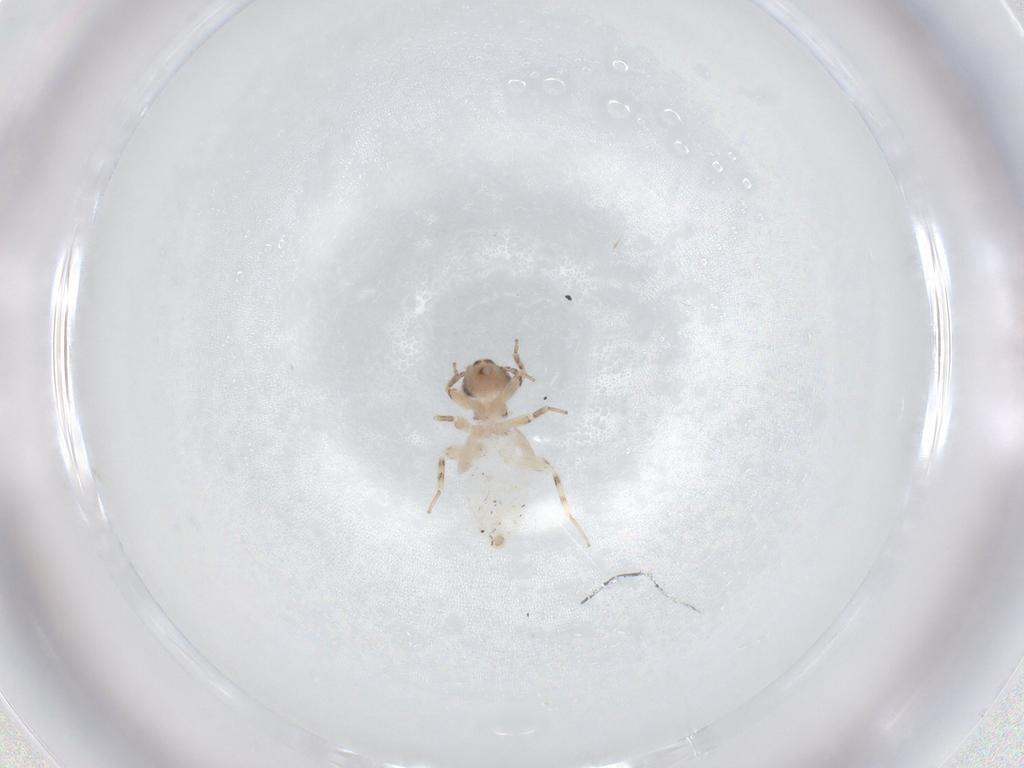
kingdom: Animalia
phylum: Arthropoda
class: Insecta
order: Psocodea
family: Lepidopsocidae
